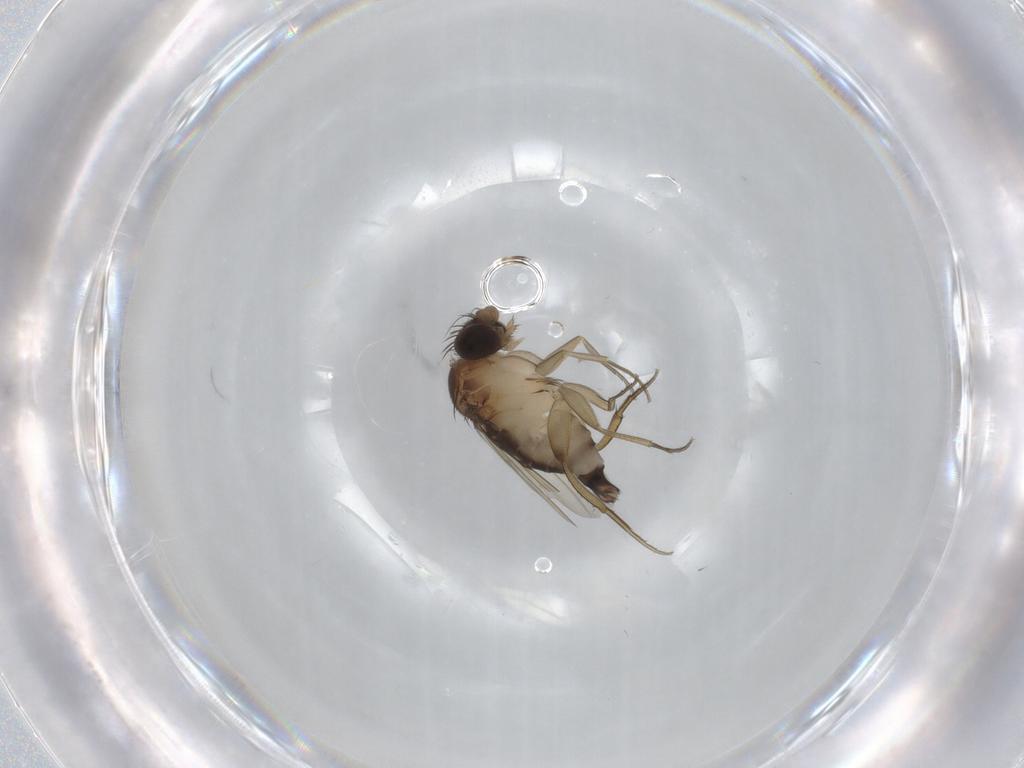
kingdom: Animalia
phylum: Arthropoda
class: Insecta
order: Diptera
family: Phoridae
